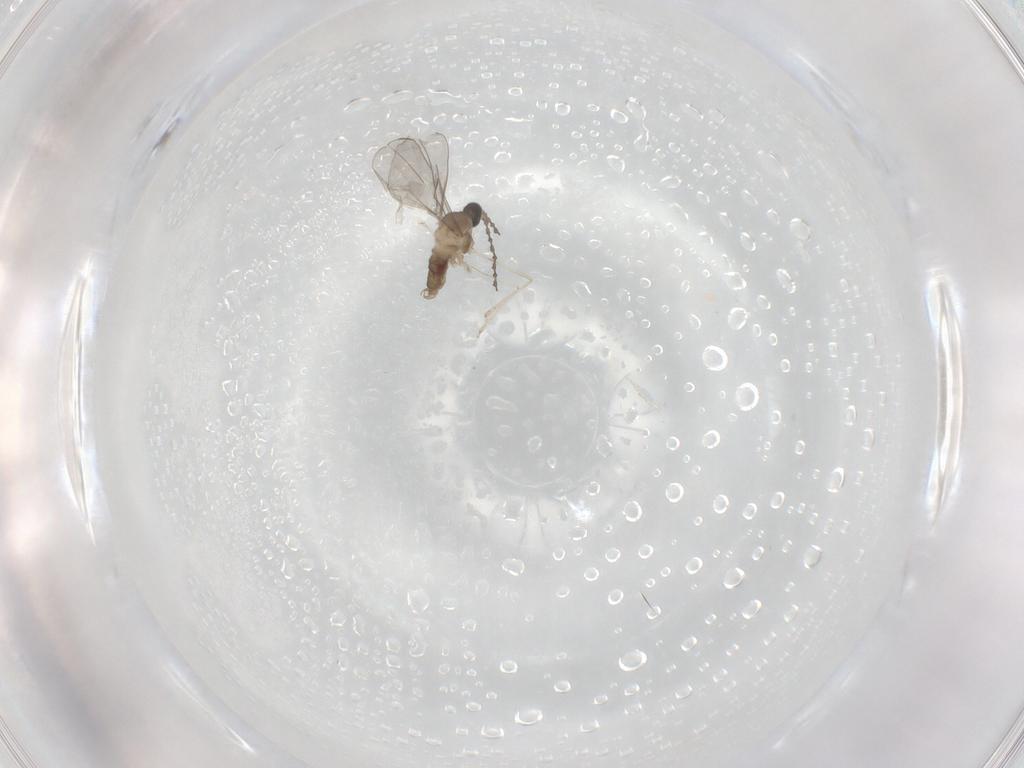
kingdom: Animalia
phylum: Arthropoda
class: Insecta
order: Diptera
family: Cecidomyiidae
